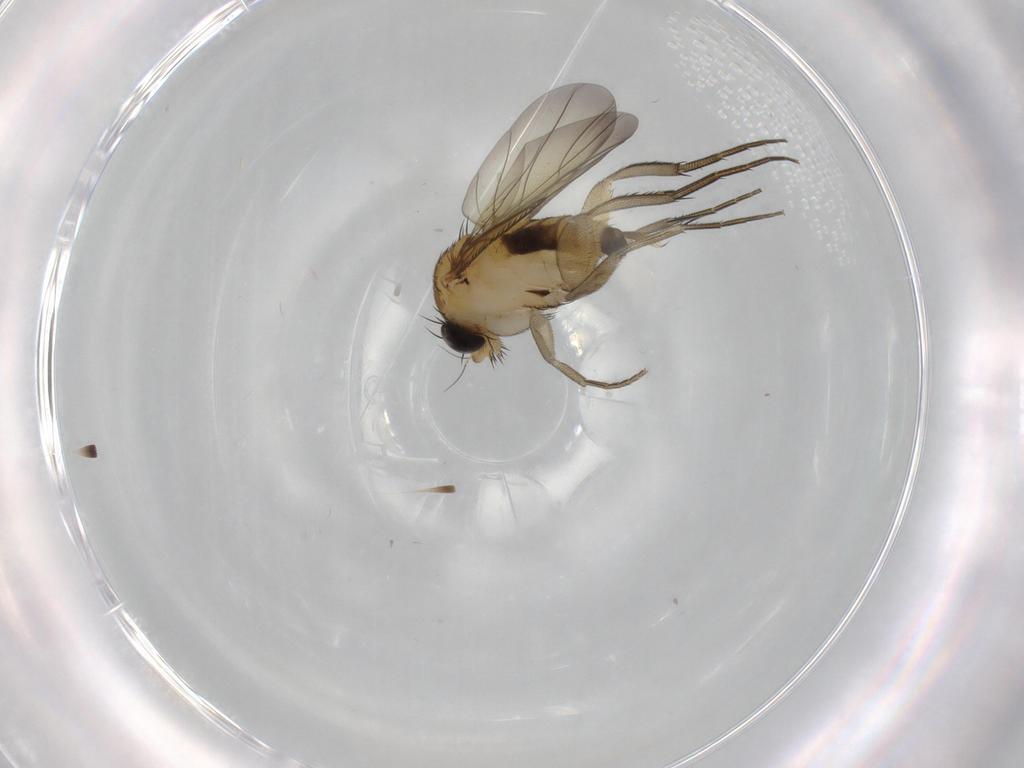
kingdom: Animalia
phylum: Arthropoda
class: Insecta
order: Diptera
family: Phoridae
